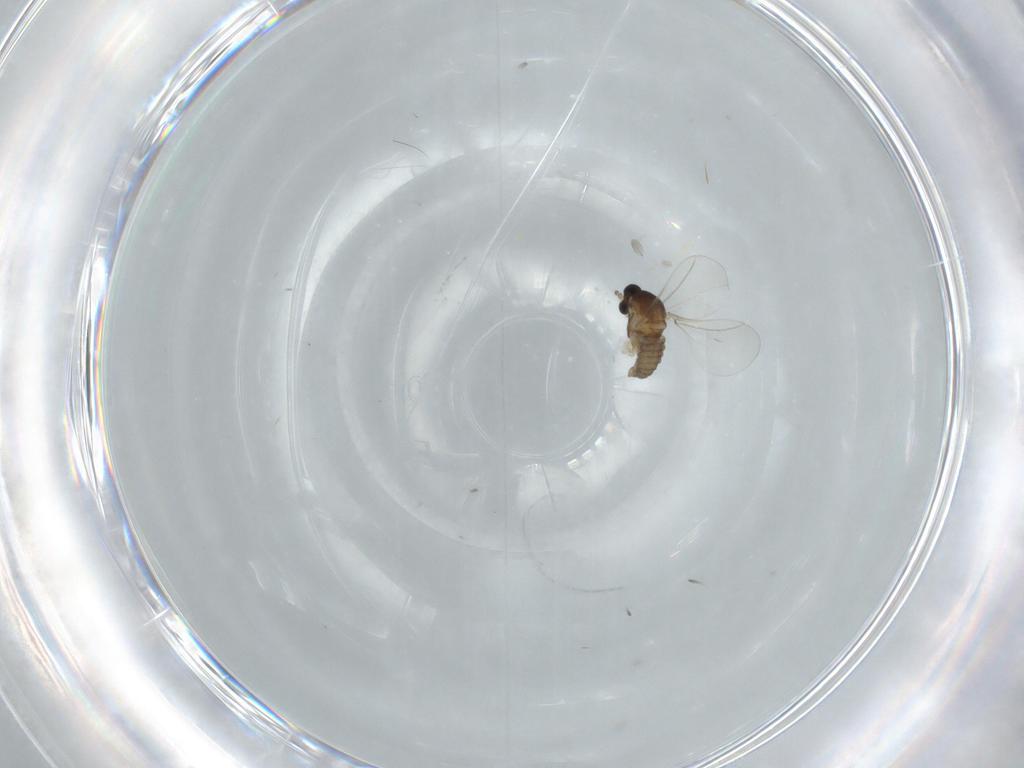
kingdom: Animalia
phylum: Arthropoda
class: Insecta
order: Diptera
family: Cecidomyiidae
